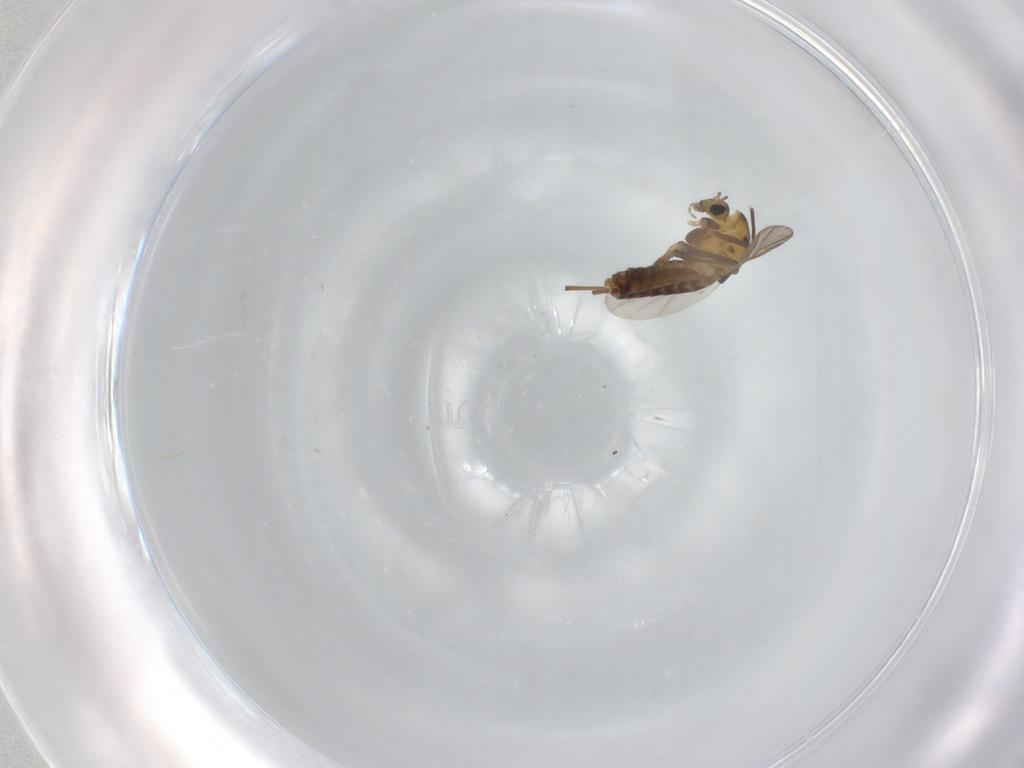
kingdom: Animalia
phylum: Arthropoda
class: Insecta
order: Diptera
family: Chironomidae
